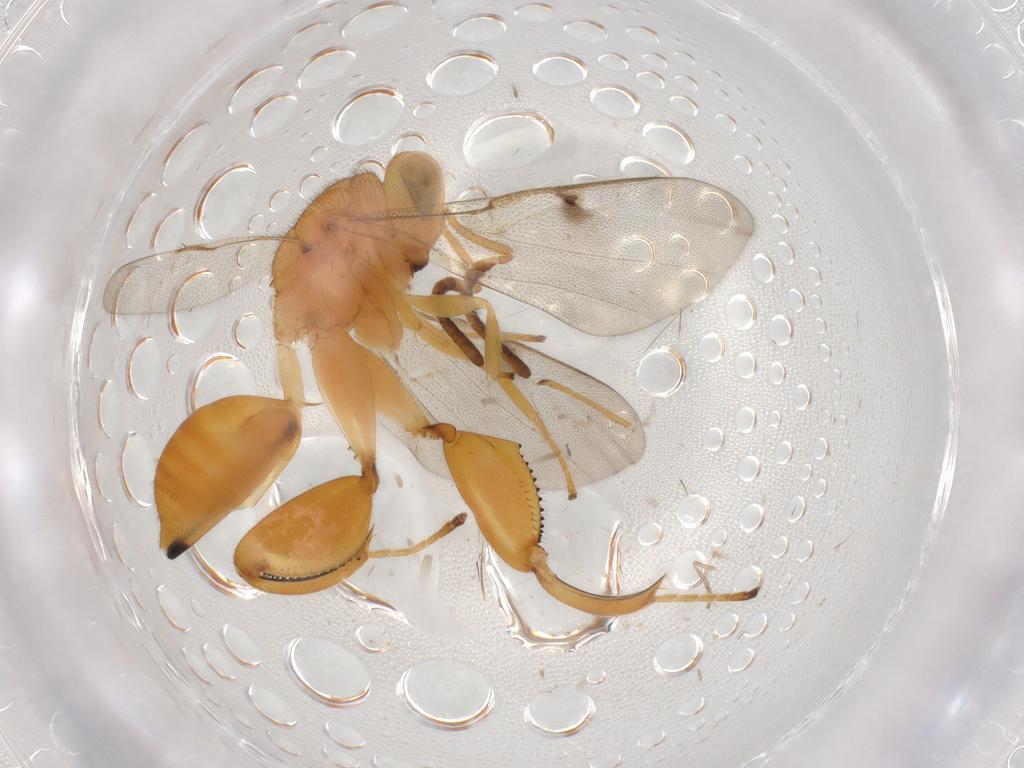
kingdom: Animalia
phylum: Arthropoda
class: Insecta
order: Hymenoptera
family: Chalcididae
